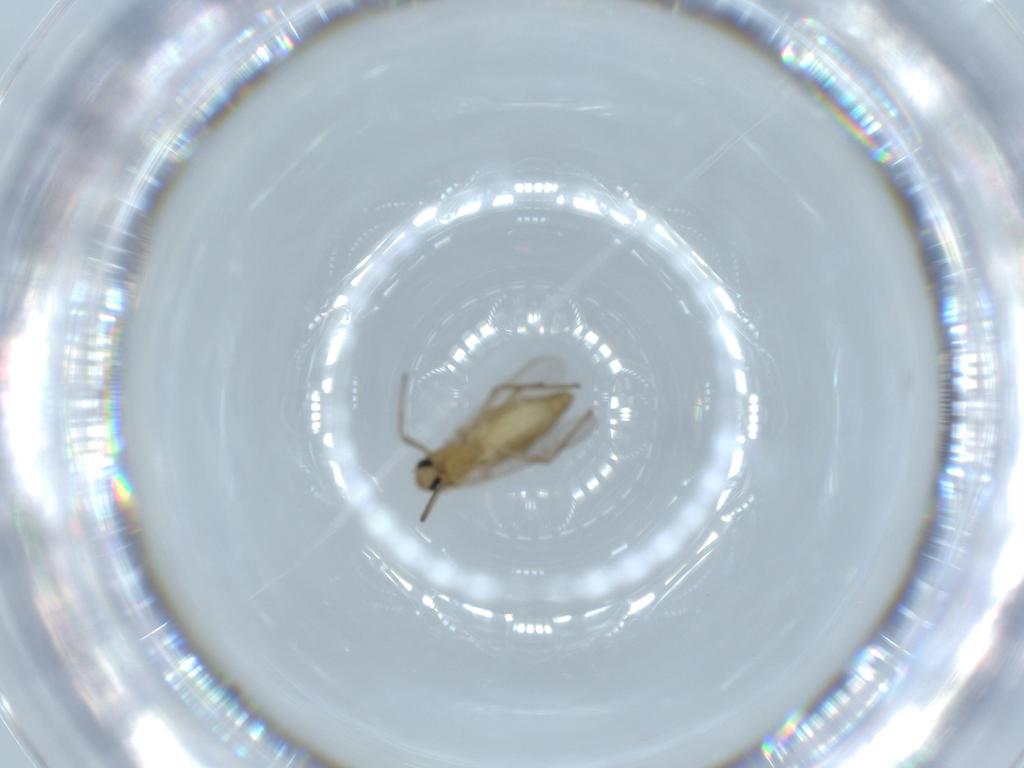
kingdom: Animalia
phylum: Arthropoda
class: Insecta
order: Diptera
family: Chironomidae
